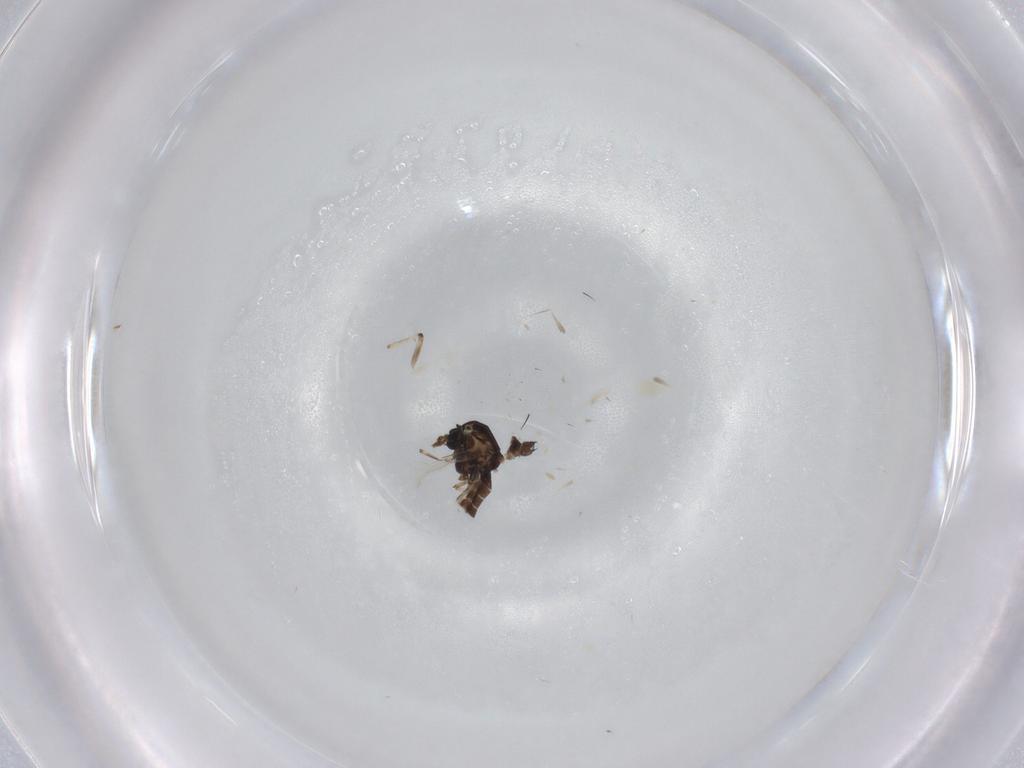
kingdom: Animalia
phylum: Arthropoda
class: Insecta
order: Diptera
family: Ceratopogonidae
